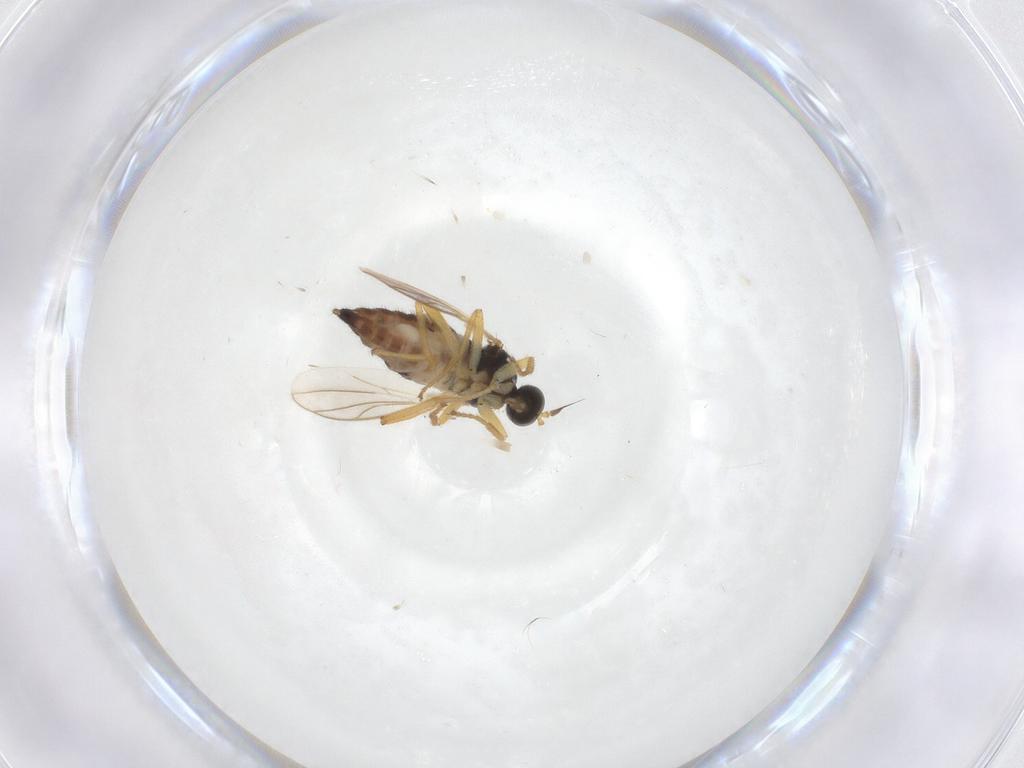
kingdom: Animalia
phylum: Arthropoda
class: Insecta
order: Diptera
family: Hybotidae
